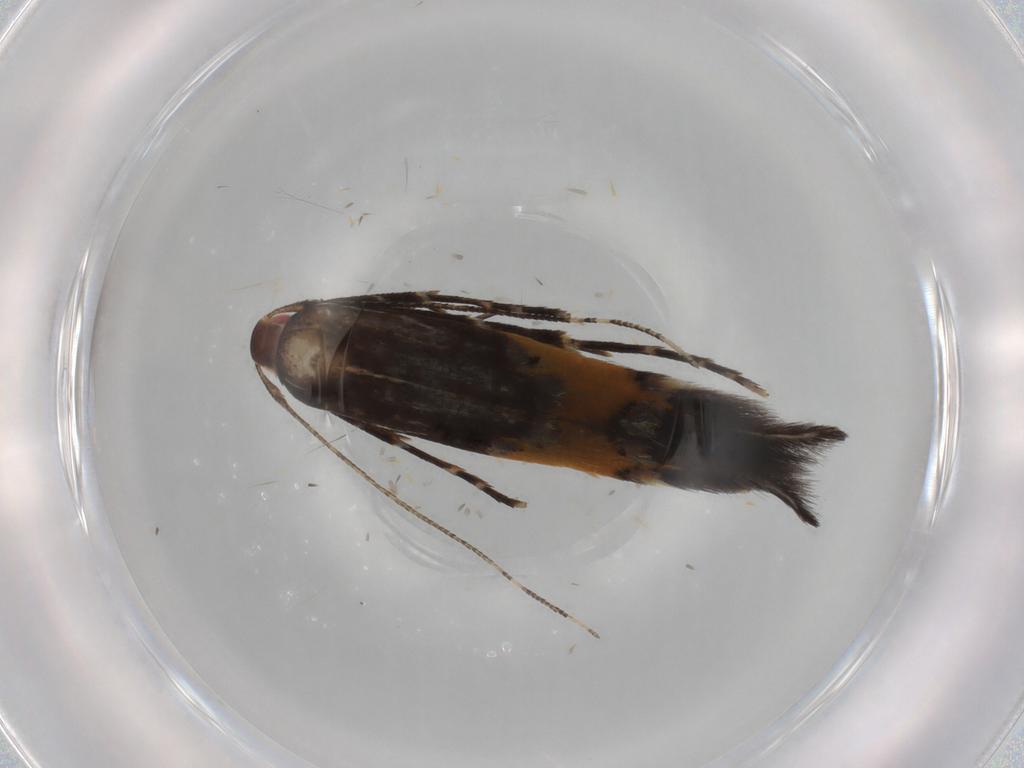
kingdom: Animalia
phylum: Arthropoda
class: Insecta
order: Lepidoptera
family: Cosmopterigidae
